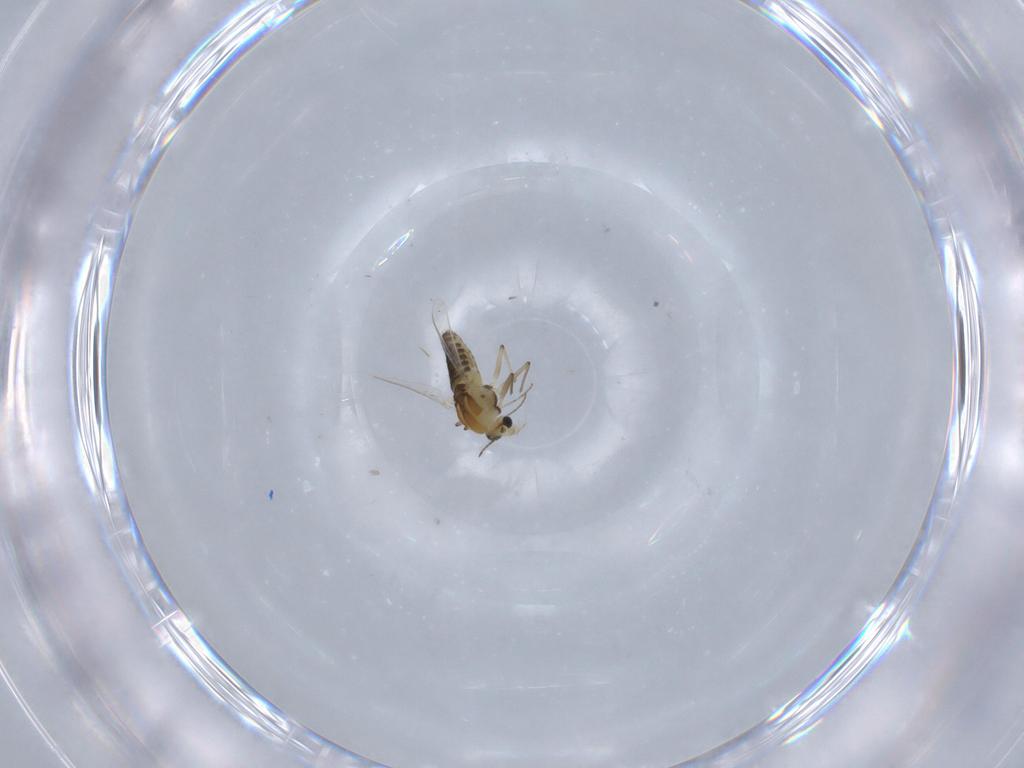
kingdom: Animalia
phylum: Arthropoda
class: Insecta
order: Diptera
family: Chironomidae
